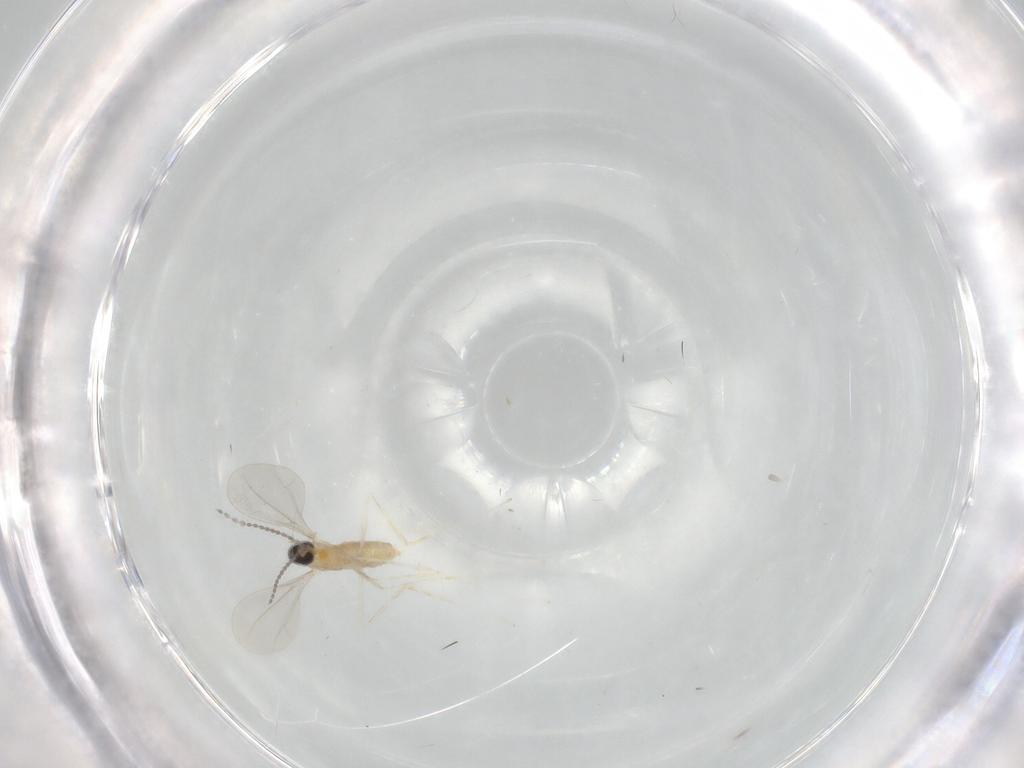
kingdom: Animalia
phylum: Arthropoda
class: Insecta
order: Diptera
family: Cecidomyiidae
